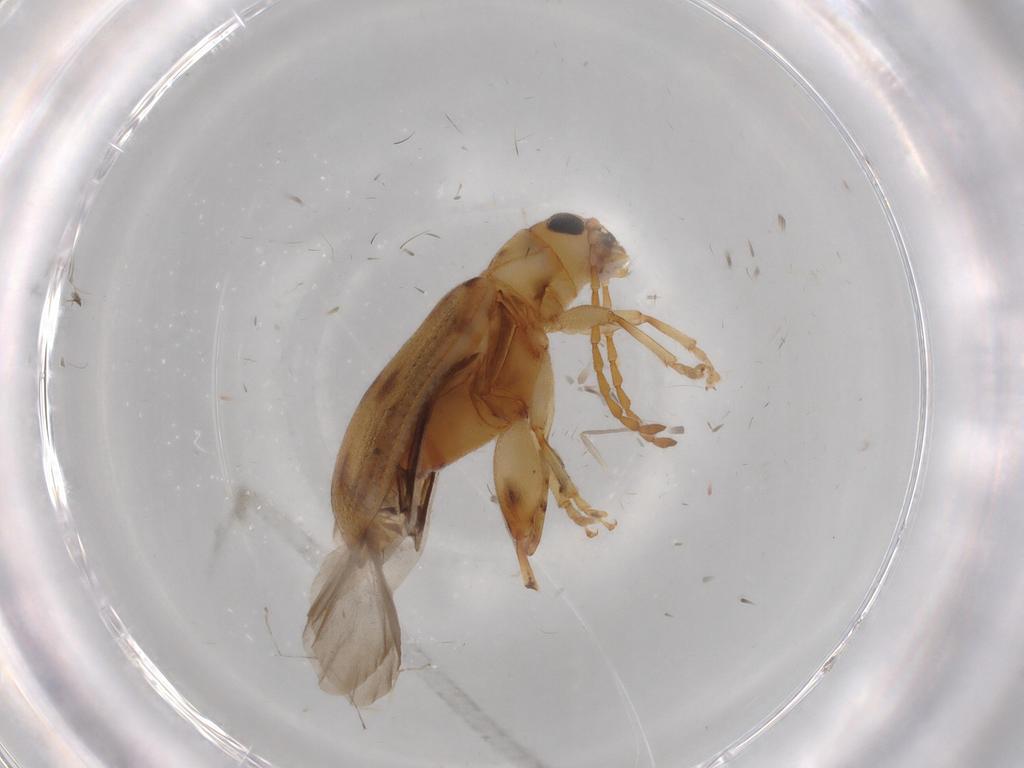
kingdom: Animalia
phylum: Arthropoda
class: Insecta
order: Coleoptera
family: Chrysomelidae
